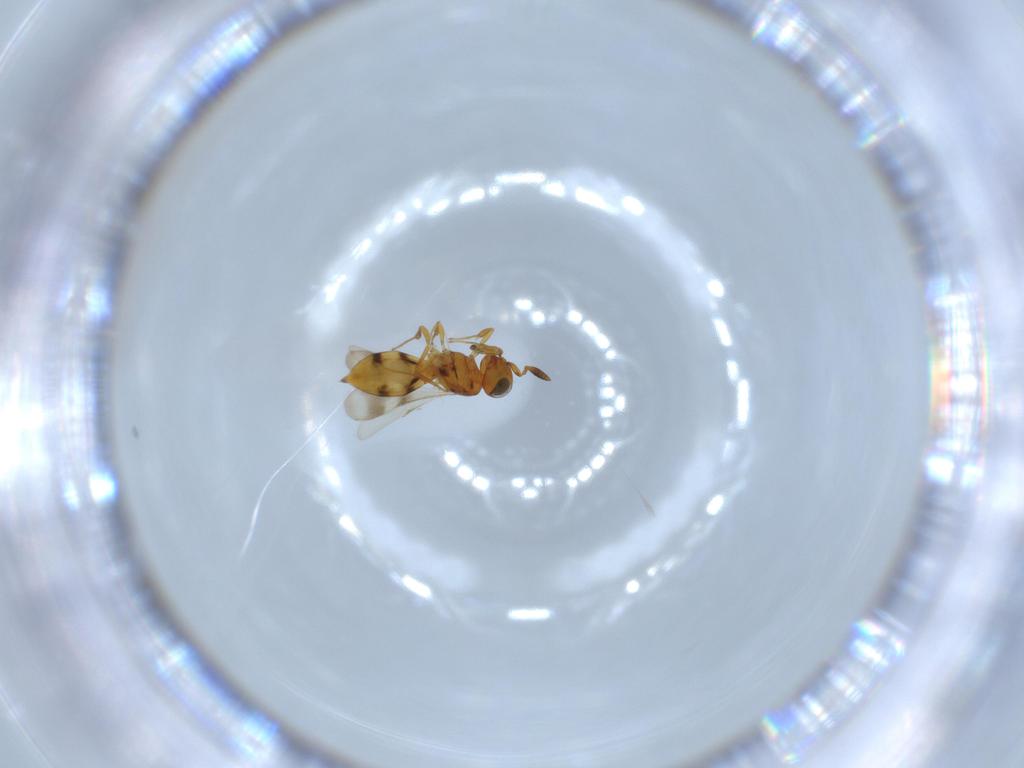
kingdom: Animalia
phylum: Arthropoda
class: Insecta
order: Hymenoptera
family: Scelionidae
